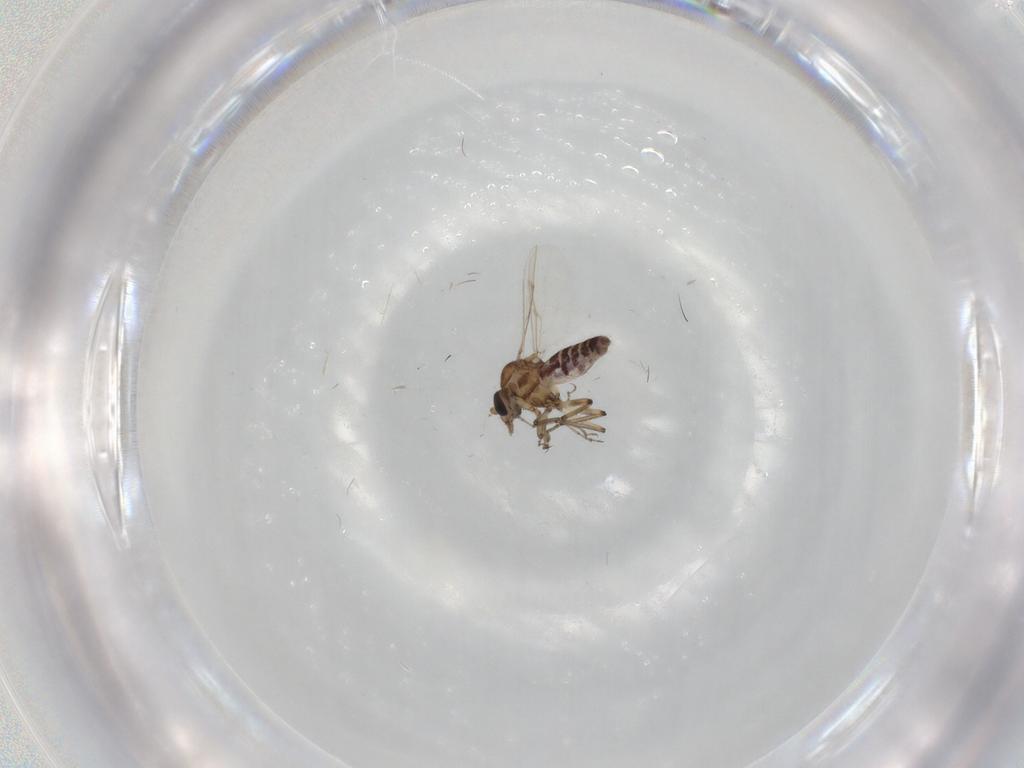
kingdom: Animalia
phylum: Arthropoda
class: Insecta
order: Diptera
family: Ceratopogonidae
